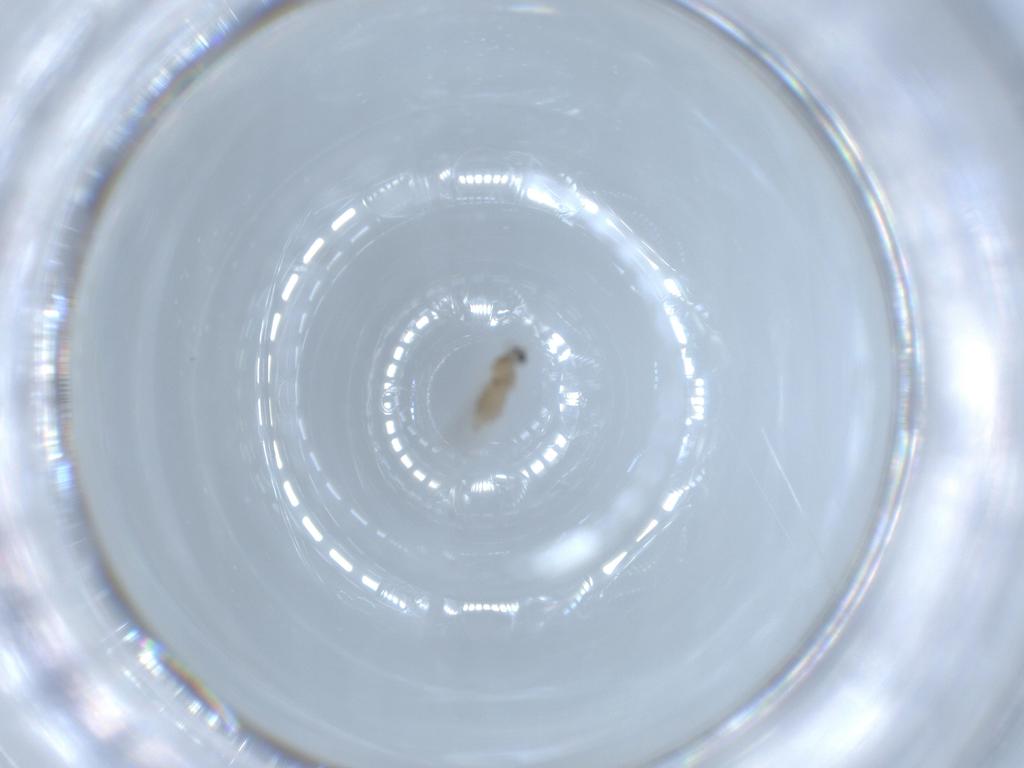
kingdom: Animalia
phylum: Arthropoda
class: Insecta
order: Diptera
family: Cecidomyiidae
